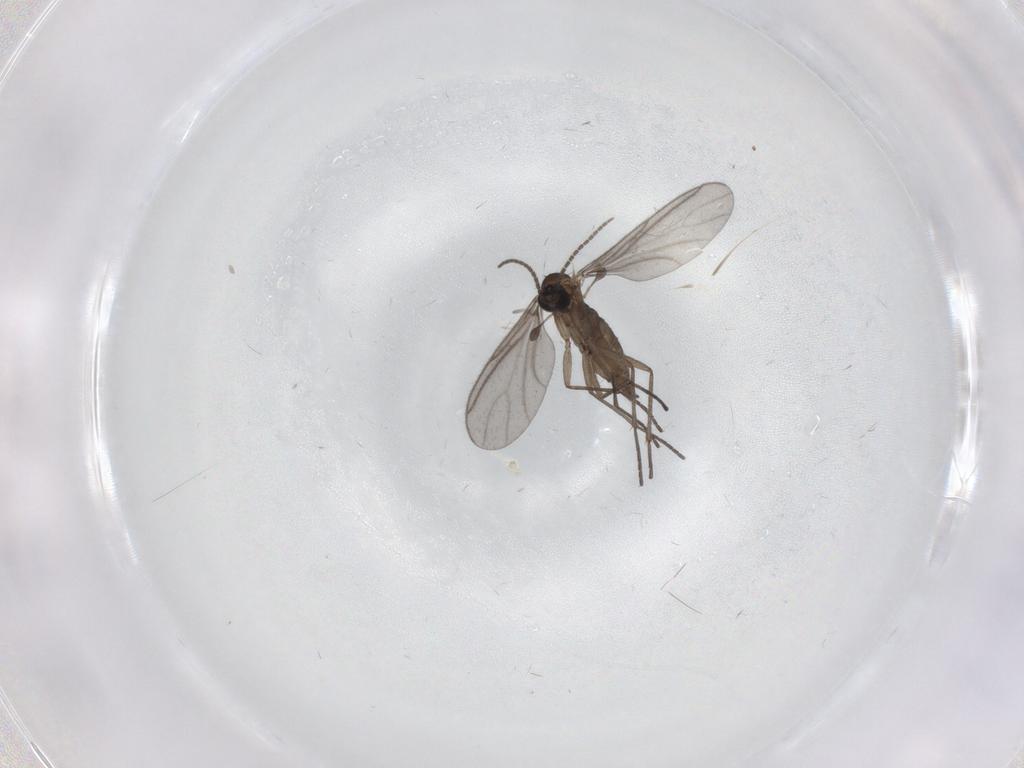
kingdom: Animalia
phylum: Arthropoda
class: Insecta
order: Diptera
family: Sciaridae
